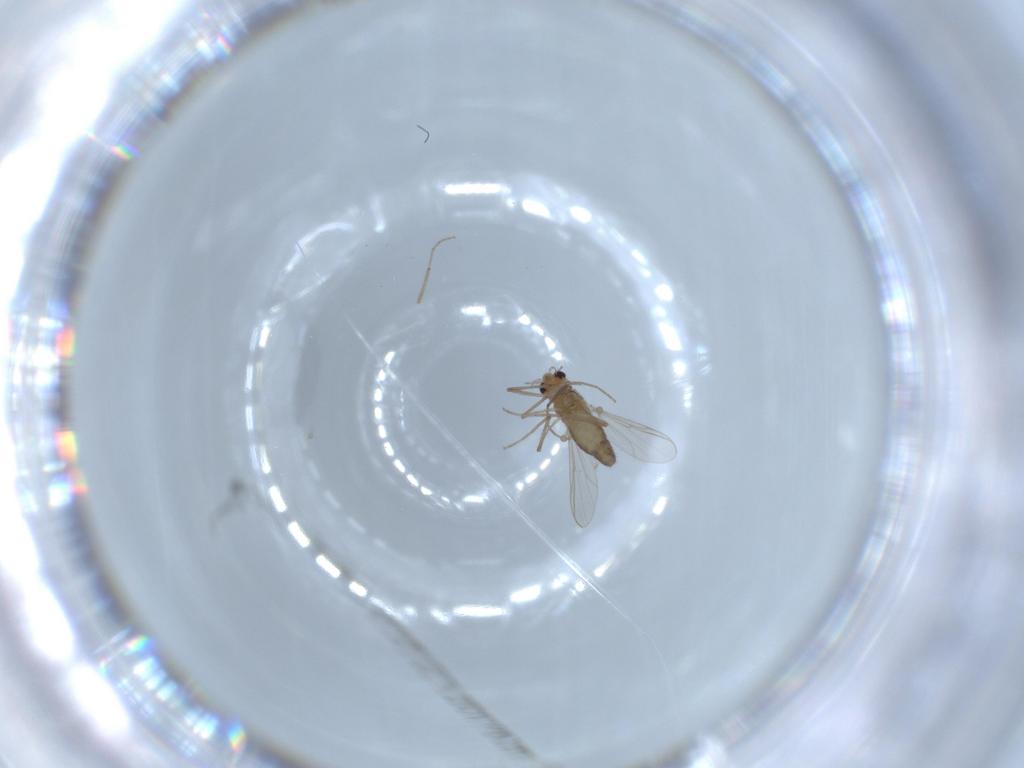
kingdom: Animalia
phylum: Arthropoda
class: Insecta
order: Diptera
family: Chironomidae
